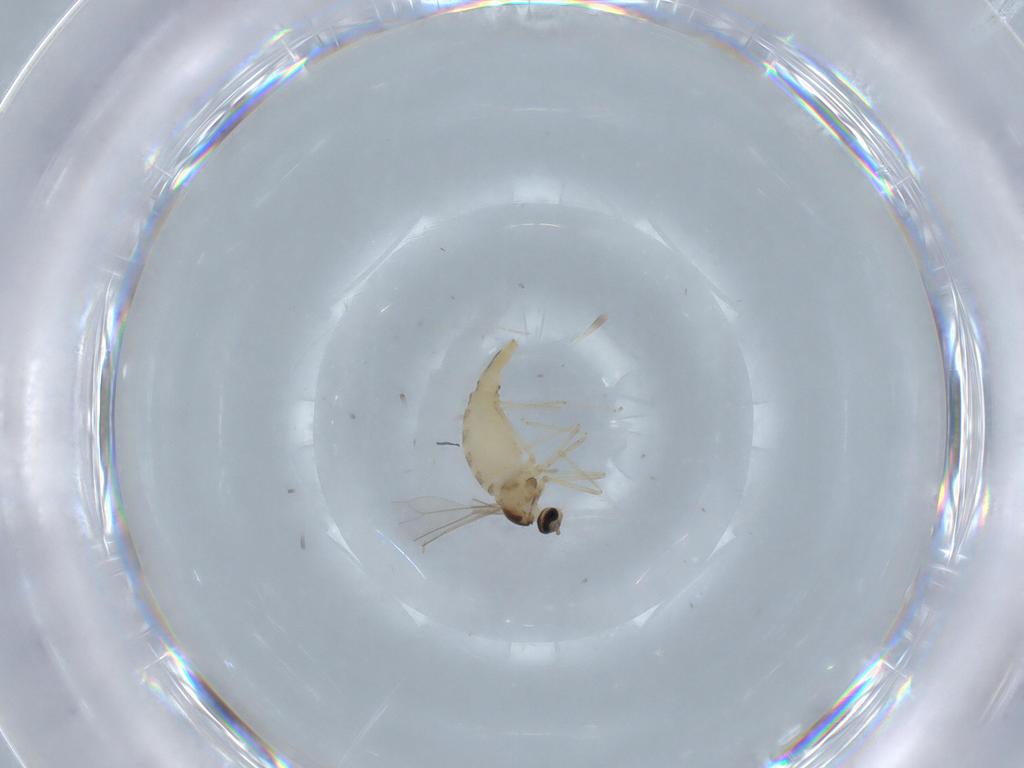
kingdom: Animalia
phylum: Arthropoda
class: Insecta
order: Diptera
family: Cecidomyiidae
